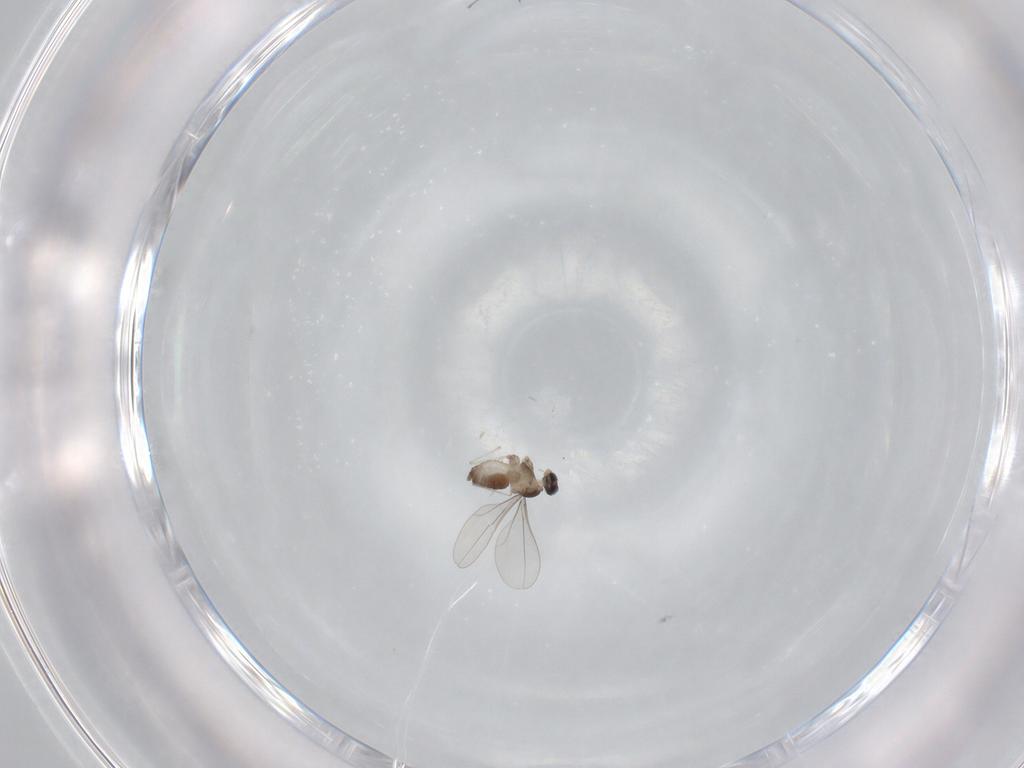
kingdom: Animalia
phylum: Arthropoda
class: Insecta
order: Diptera
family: Cecidomyiidae
